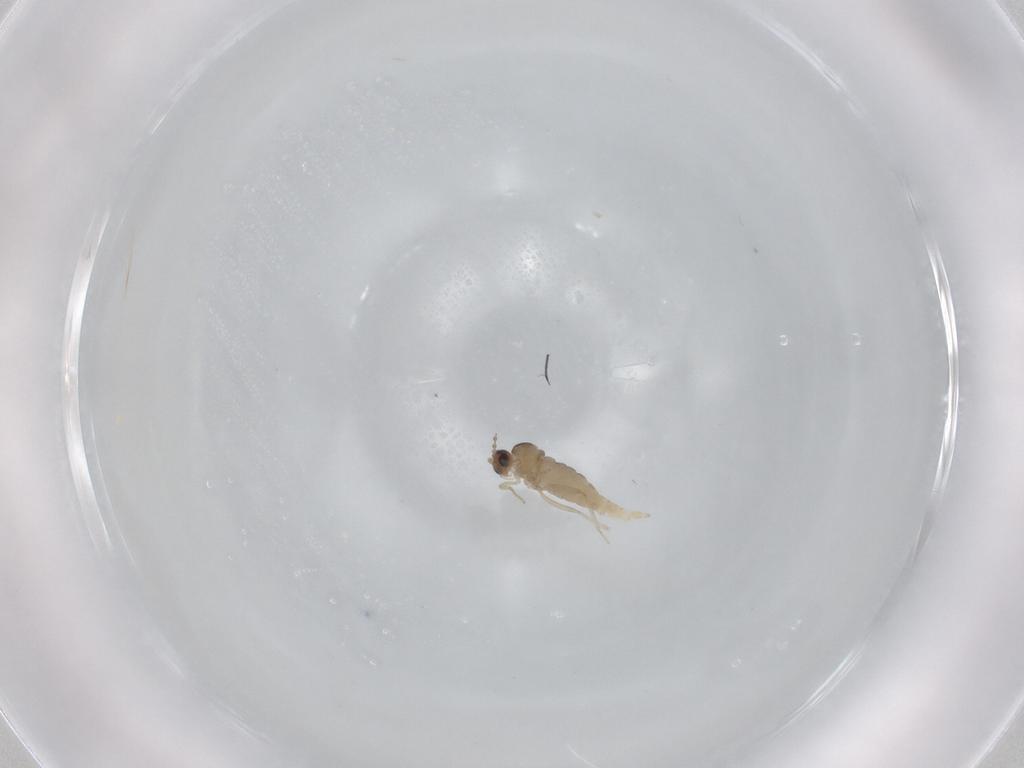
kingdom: Animalia
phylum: Arthropoda
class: Insecta
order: Diptera
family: Cecidomyiidae
